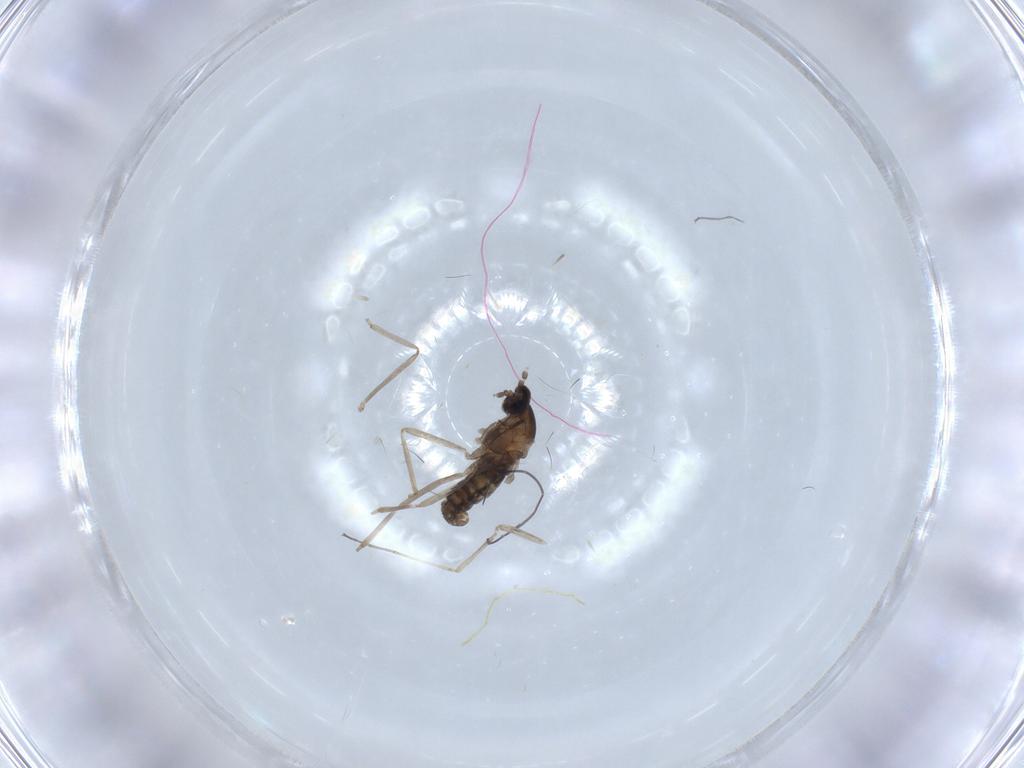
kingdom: Animalia
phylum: Arthropoda
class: Insecta
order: Diptera
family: Cecidomyiidae
